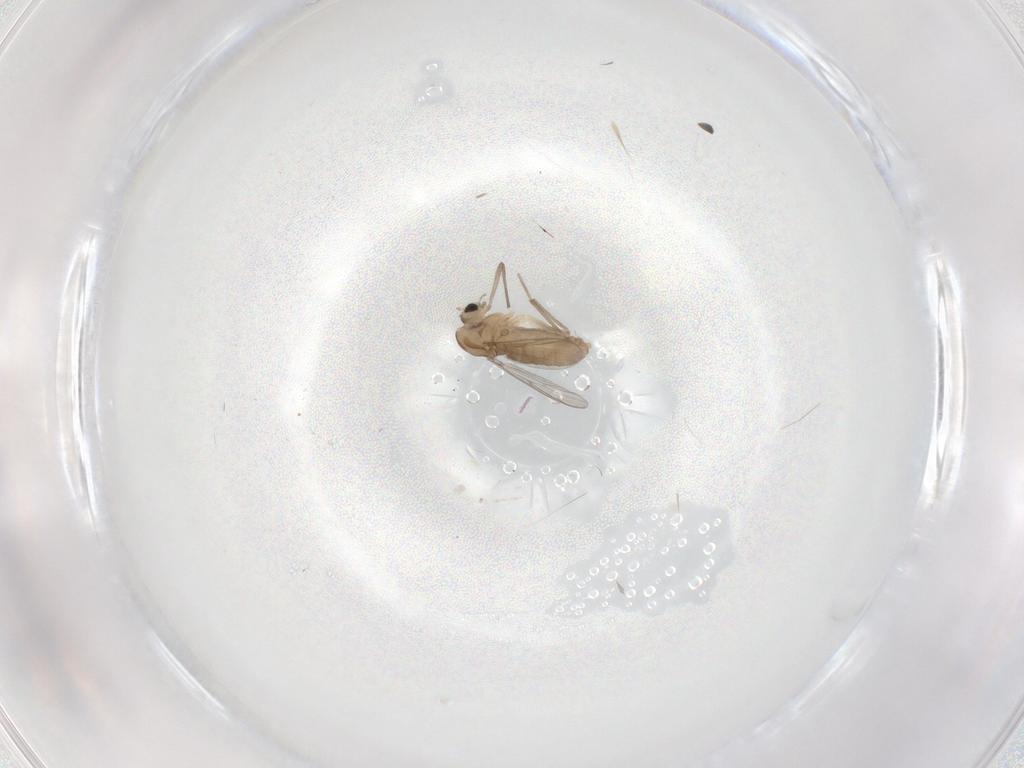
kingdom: Animalia
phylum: Arthropoda
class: Insecta
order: Diptera
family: Chironomidae
